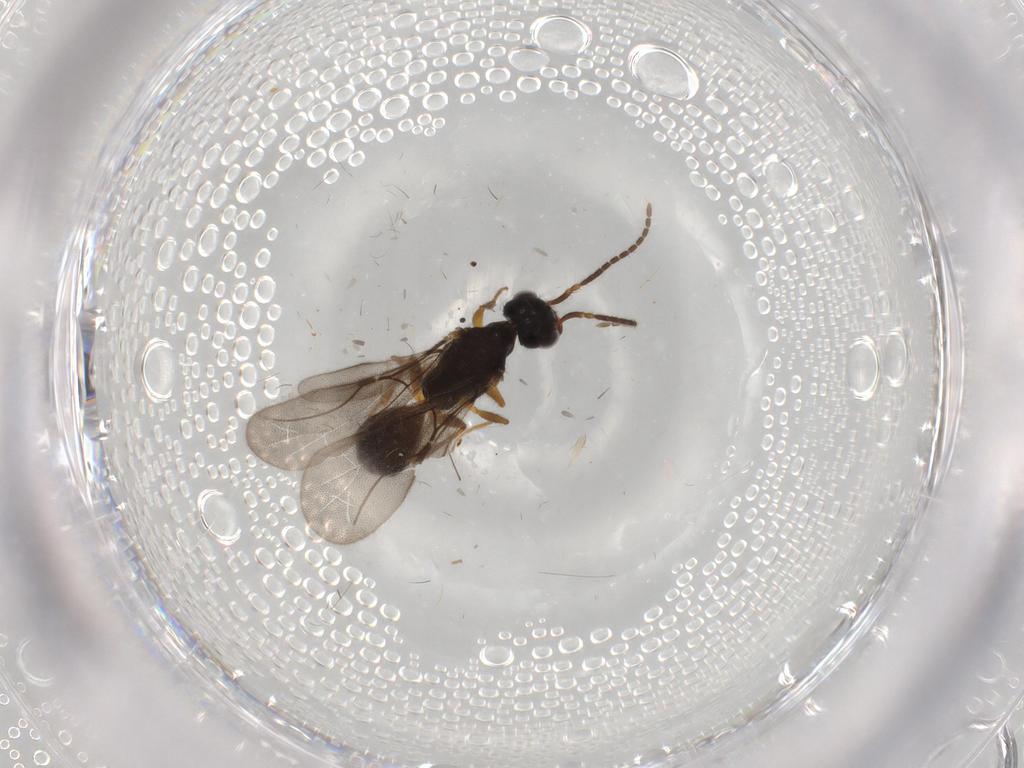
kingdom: Animalia
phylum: Arthropoda
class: Insecta
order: Hymenoptera
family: Bethylidae
